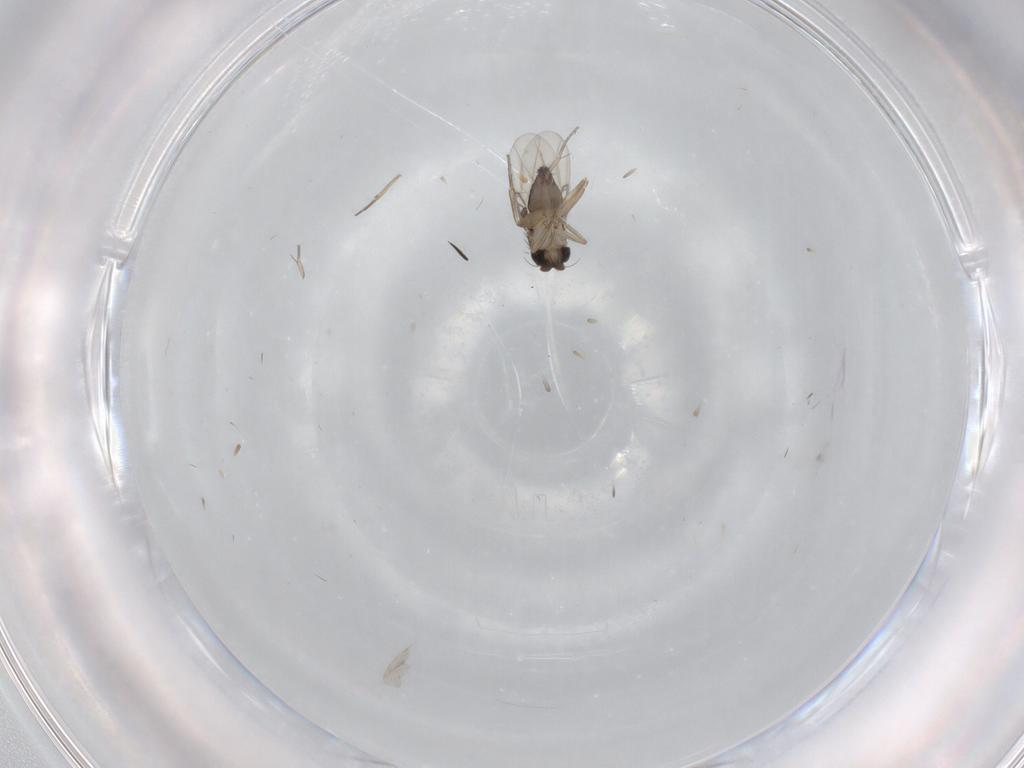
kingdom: Animalia
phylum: Arthropoda
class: Insecta
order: Diptera
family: Phoridae
